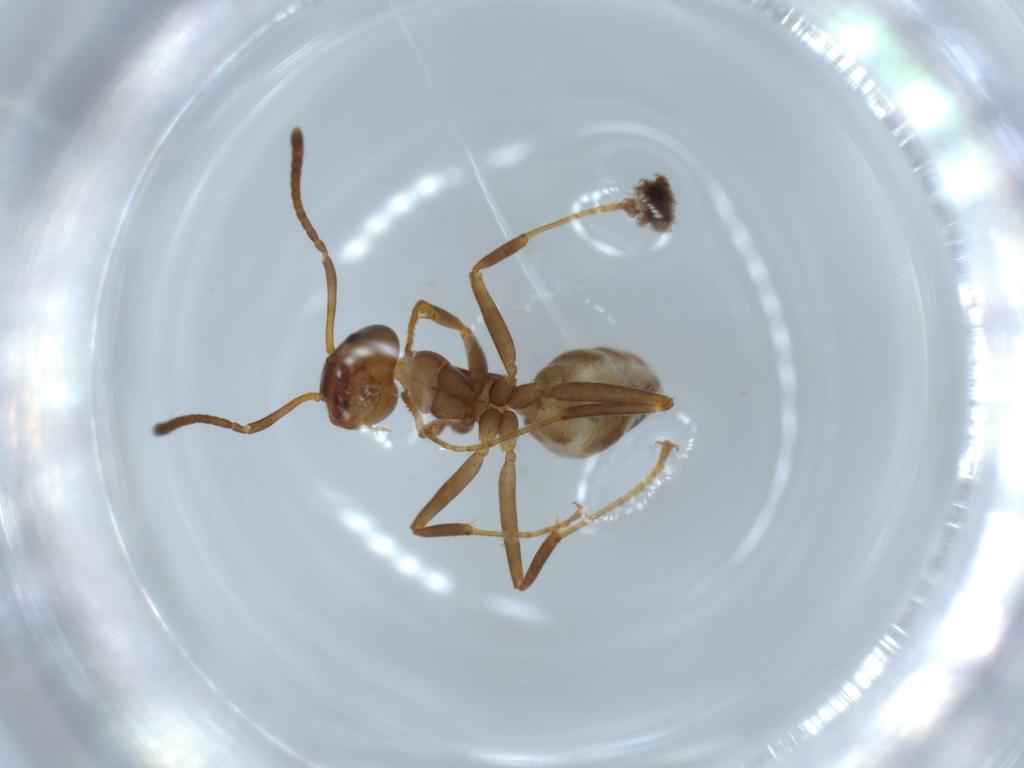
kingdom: Animalia
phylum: Arthropoda
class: Insecta
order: Hymenoptera
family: Formicidae
